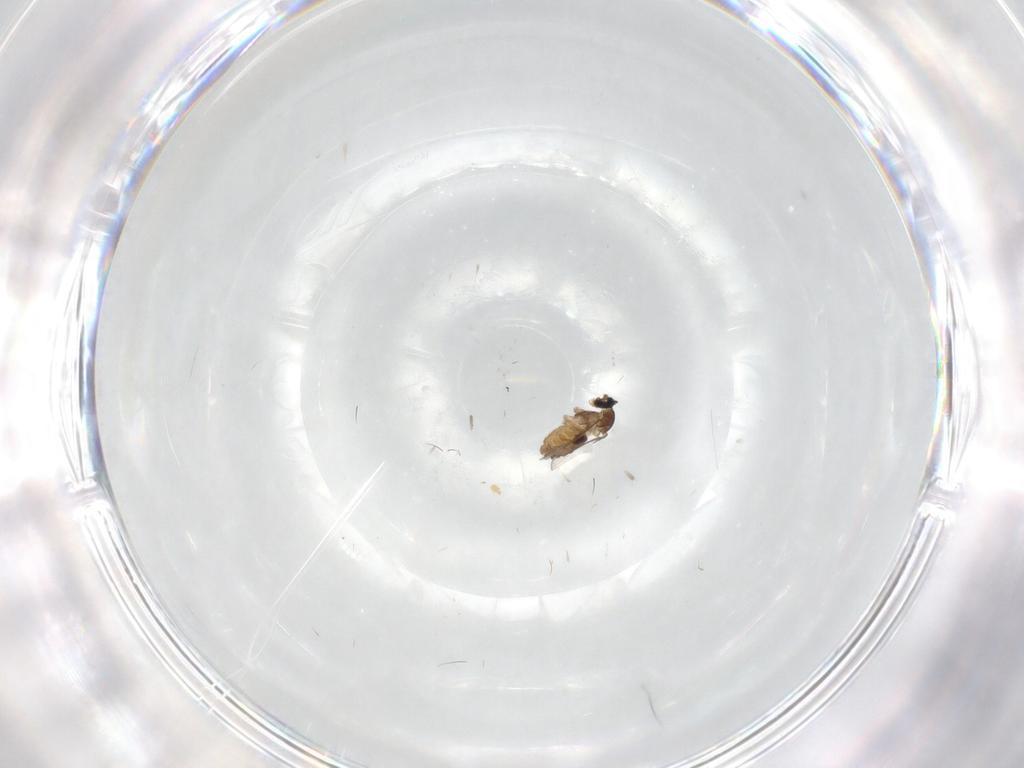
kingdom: Animalia
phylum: Arthropoda
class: Insecta
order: Diptera
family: Cecidomyiidae
